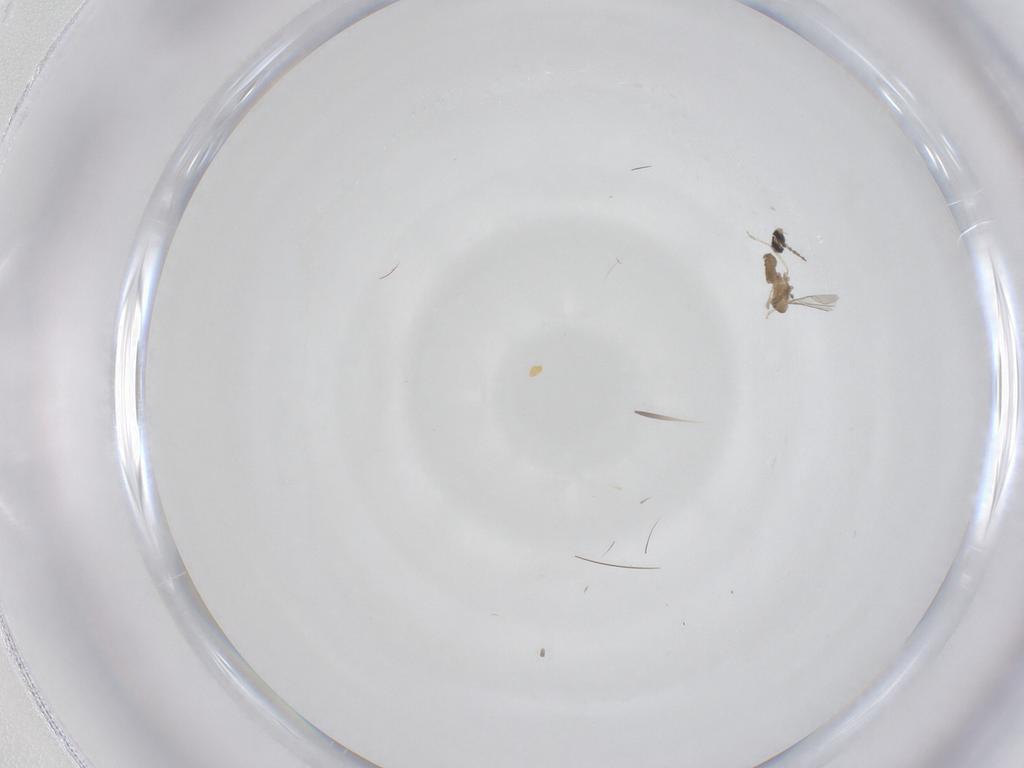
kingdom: Animalia
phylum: Arthropoda
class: Insecta
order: Diptera
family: Cecidomyiidae
